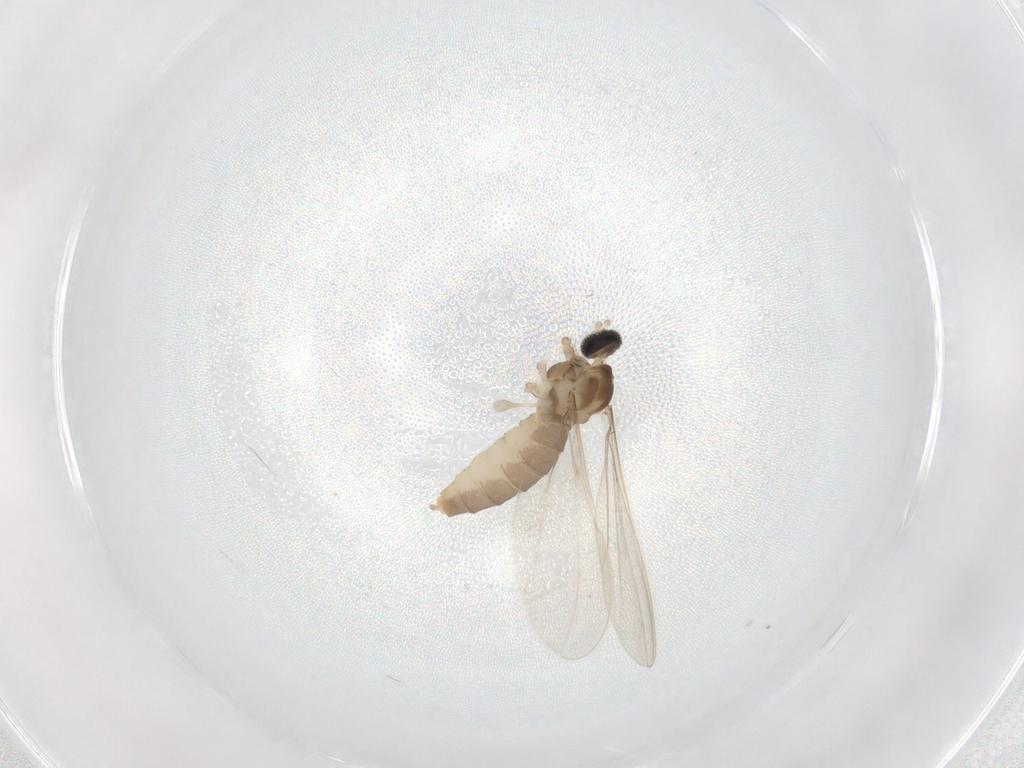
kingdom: Animalia
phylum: Arthropoda
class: Insecta
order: Diptera
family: Cecidomyiidae
